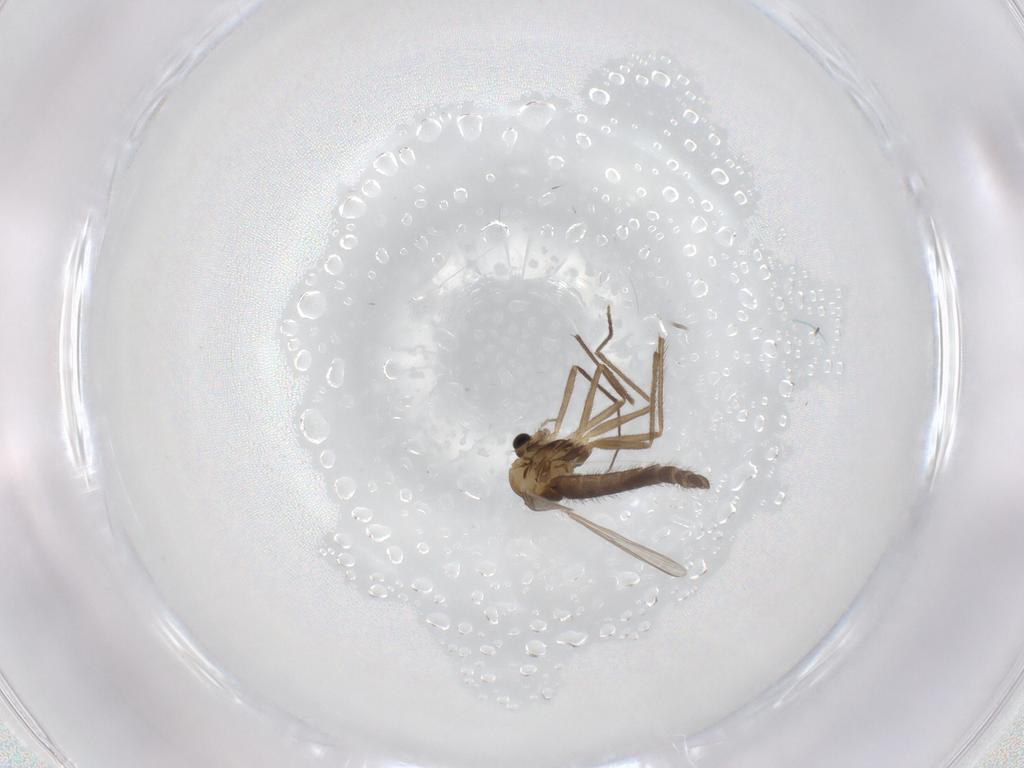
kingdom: Animalia
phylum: Arthropoda
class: Insecta
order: Diptera
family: Chironomidae
